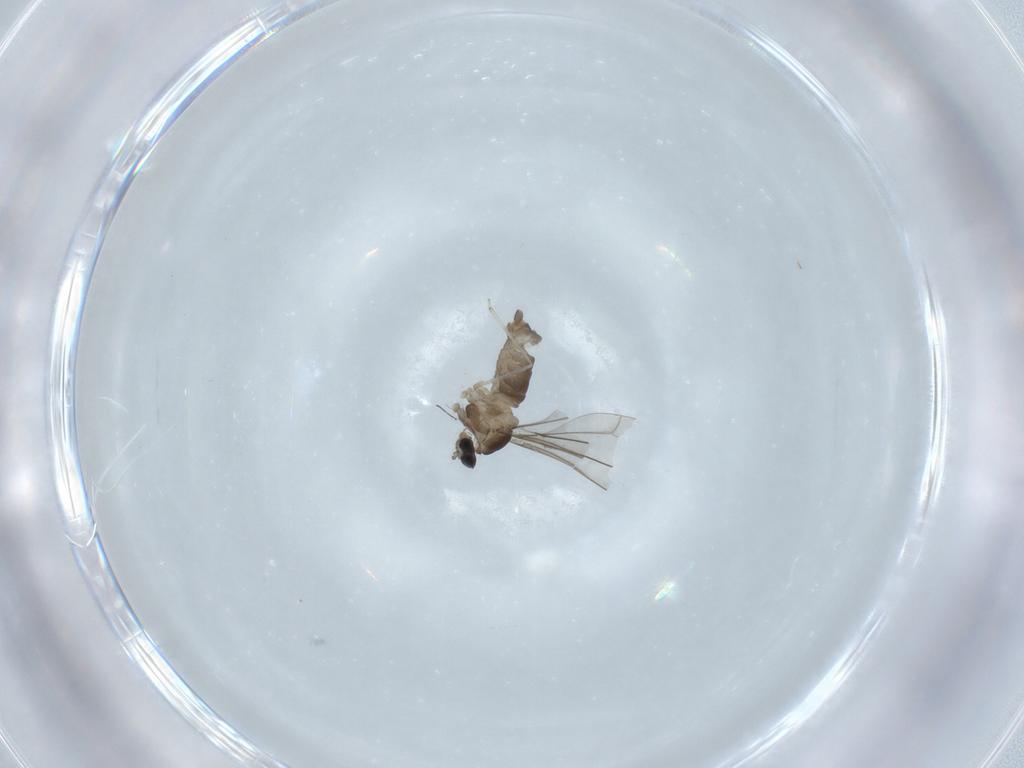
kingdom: Animalia
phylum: Arthropoda
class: Insecta
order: Diptera
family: Cecidomyiidae
